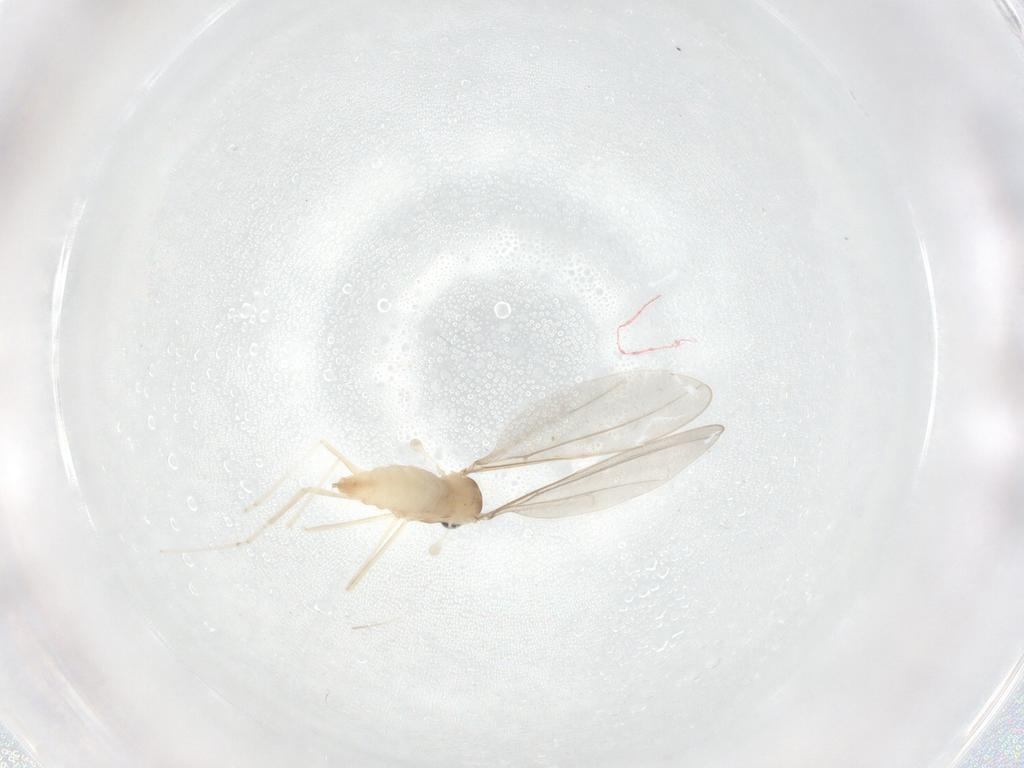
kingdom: Animalia
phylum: Arthropoda
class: Insecta
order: Diptera
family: Cecidomyiidae
